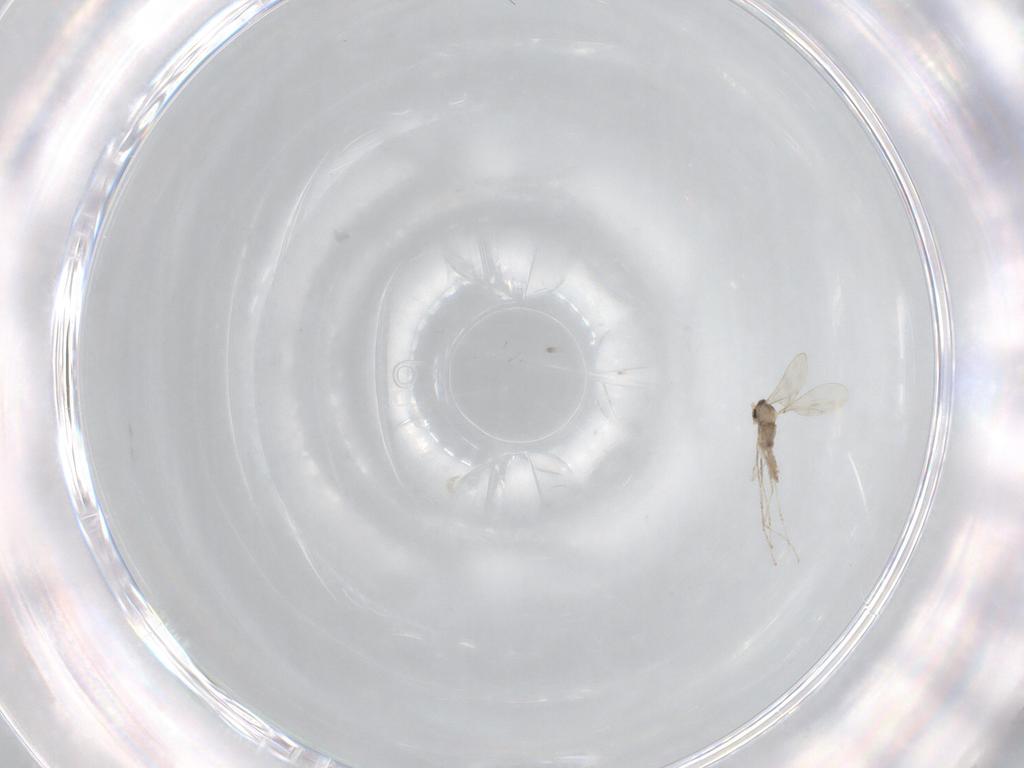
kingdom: Animalia
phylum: Arthropoda
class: Insecta
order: Diptera
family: Cecidomyiidae
